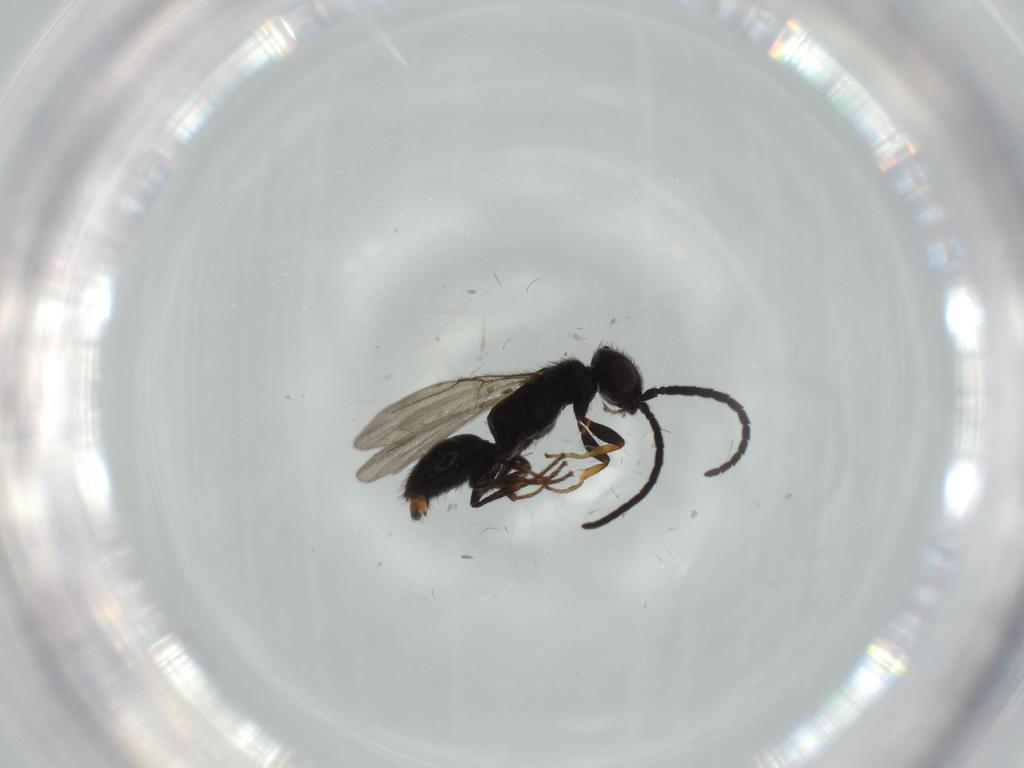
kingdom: Animalia
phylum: Arthropoda
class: Insecta
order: Hymenoptera
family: Bethylidae
